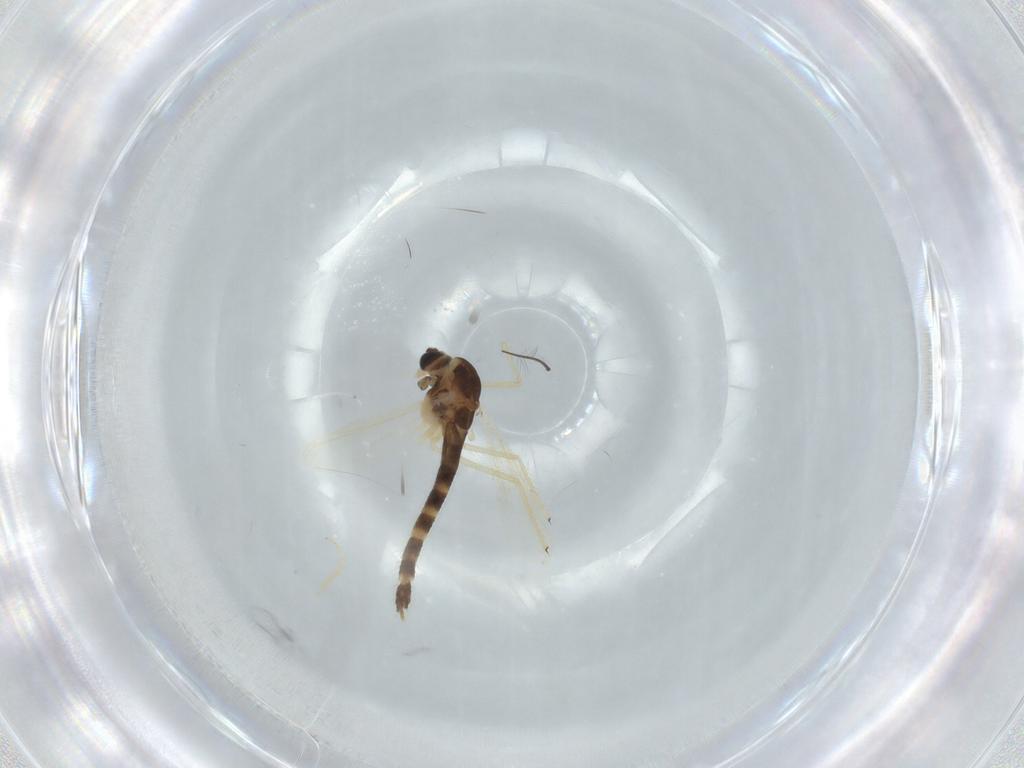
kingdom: Animalia
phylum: Arthropoda
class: Insecta
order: Diptera
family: Chironomidae
